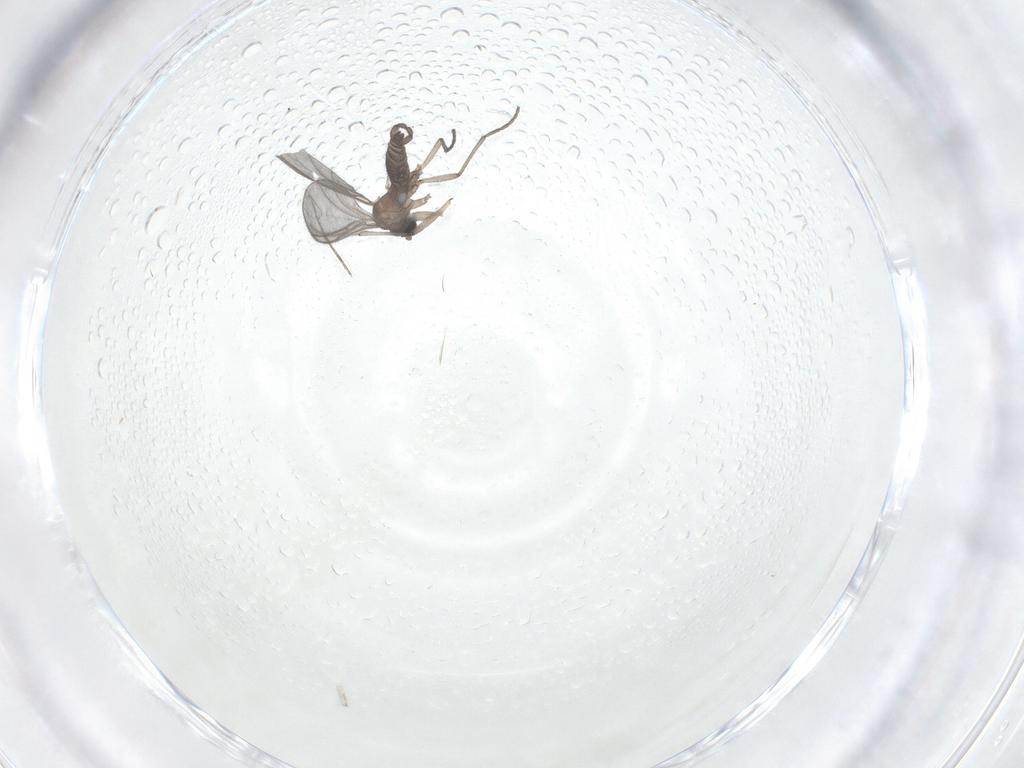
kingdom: Animalia
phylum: Arthropoda
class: Insecta
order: Diptera
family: Sciaridae
